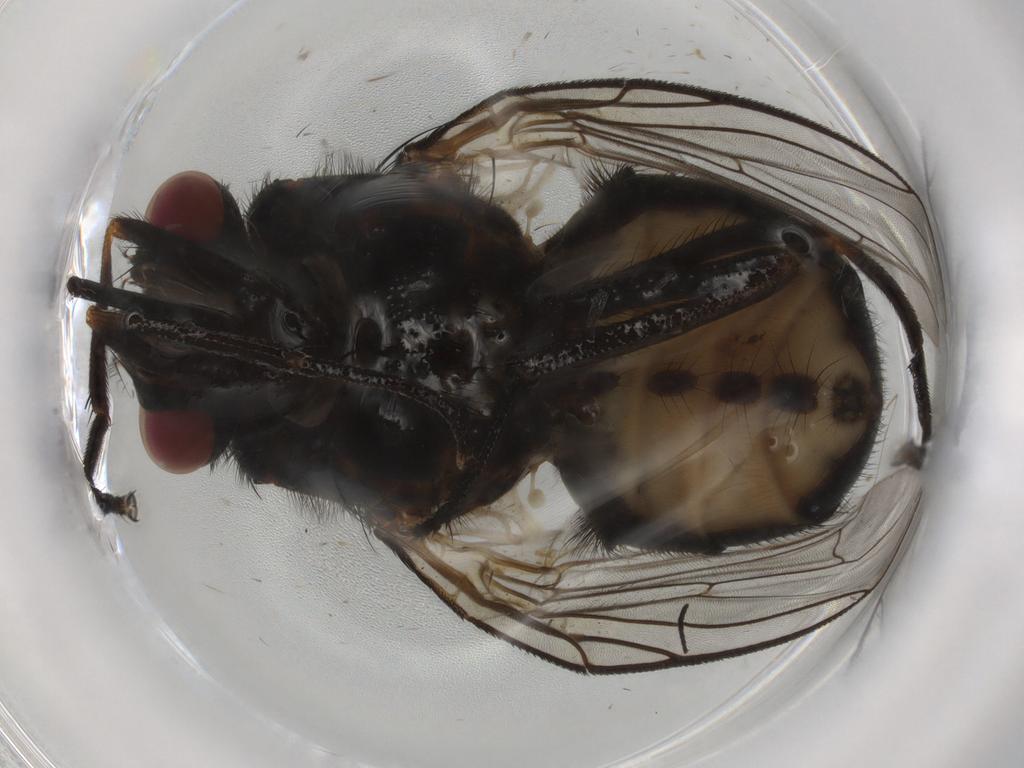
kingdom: Animalia
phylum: Arthropoda
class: Insecta
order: Diptera
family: Muscidae
